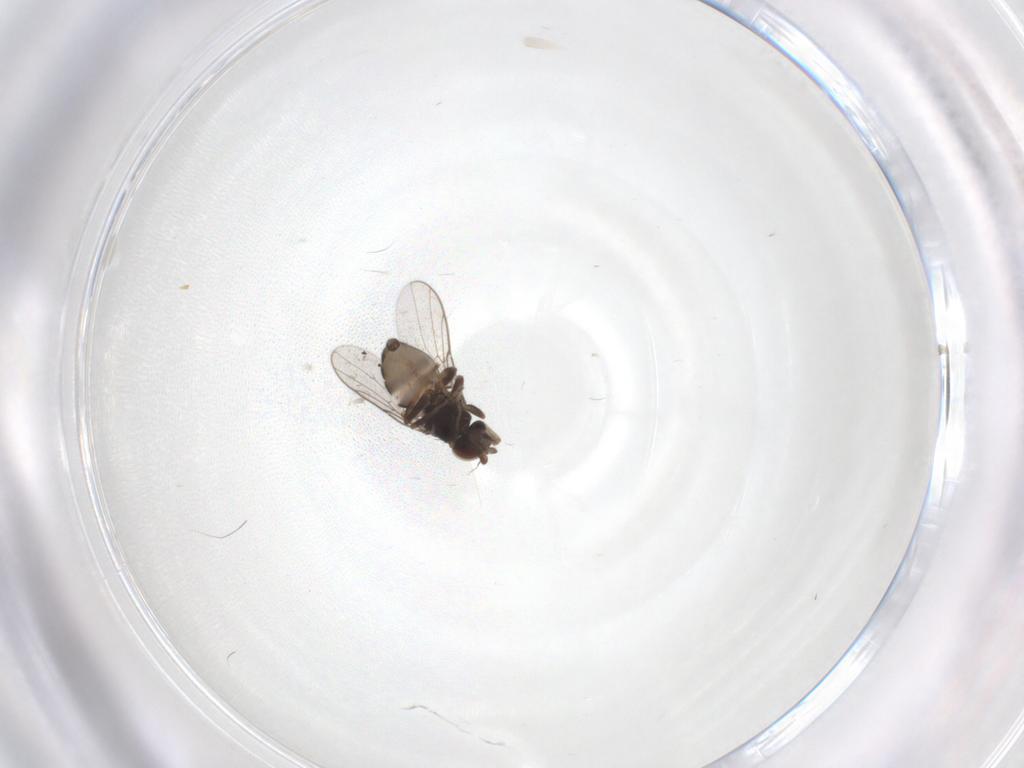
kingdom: Animalia
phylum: Arthropoda
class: Insecta
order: Diptera
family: Chloropidae
